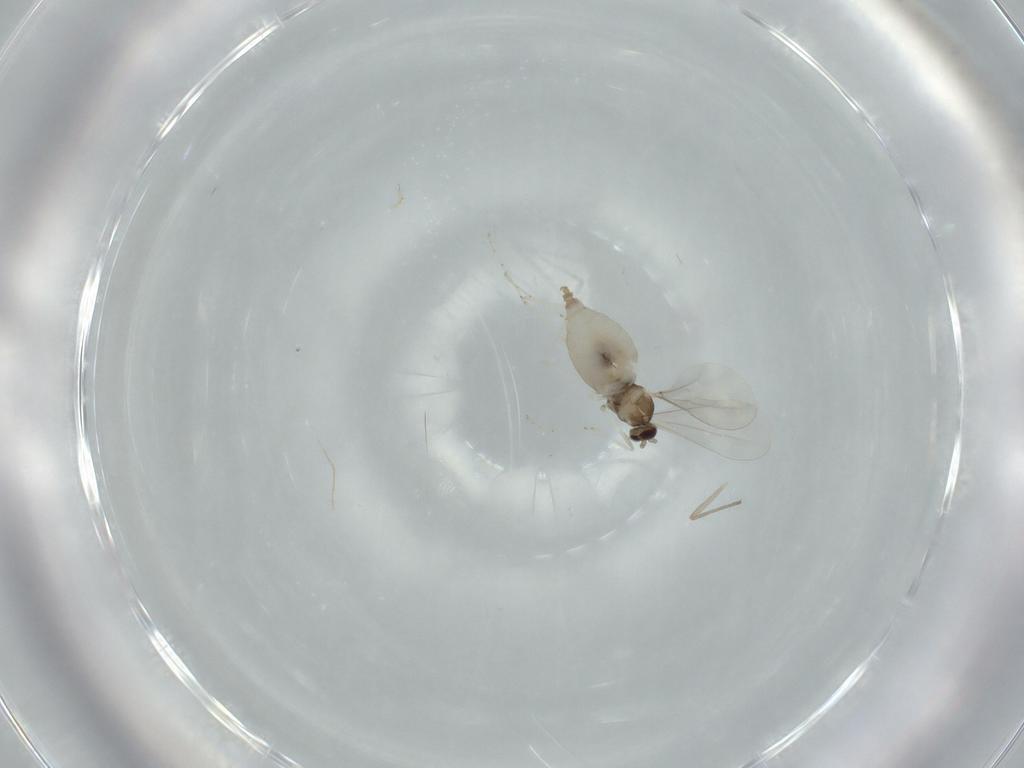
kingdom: Animalia
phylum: Arthropoda
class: Insecta
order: Diptera
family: Cecidomyiidae
